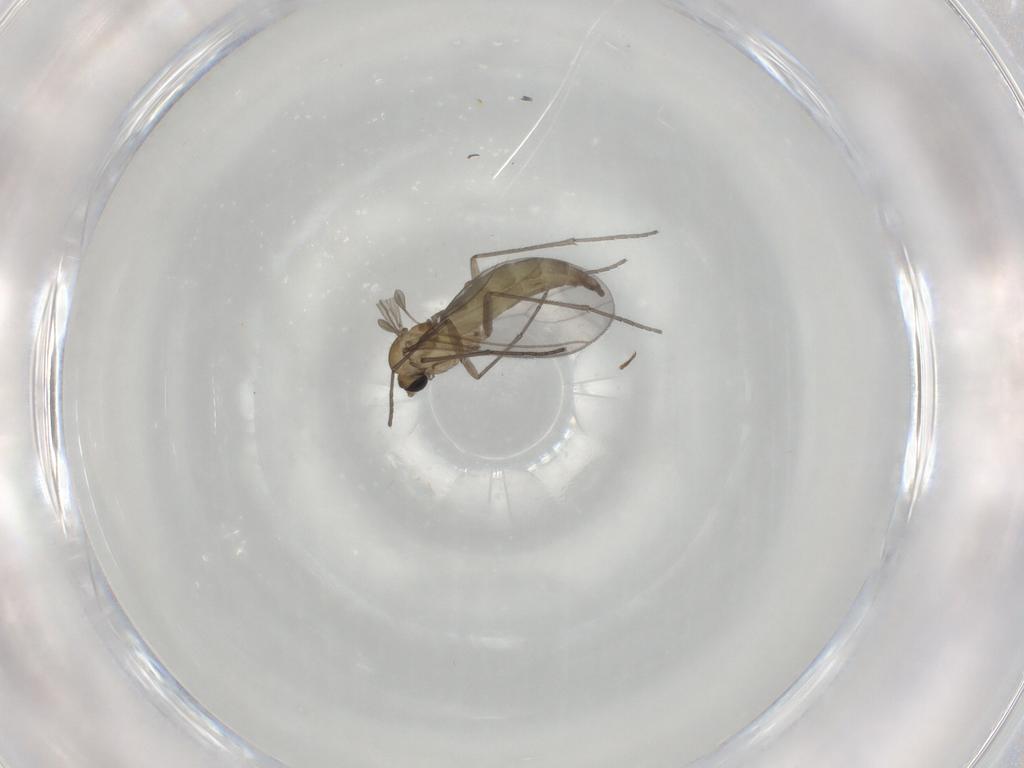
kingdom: Animalia
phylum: Arthropoda
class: Insecta
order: Diptera
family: Sciaridae
